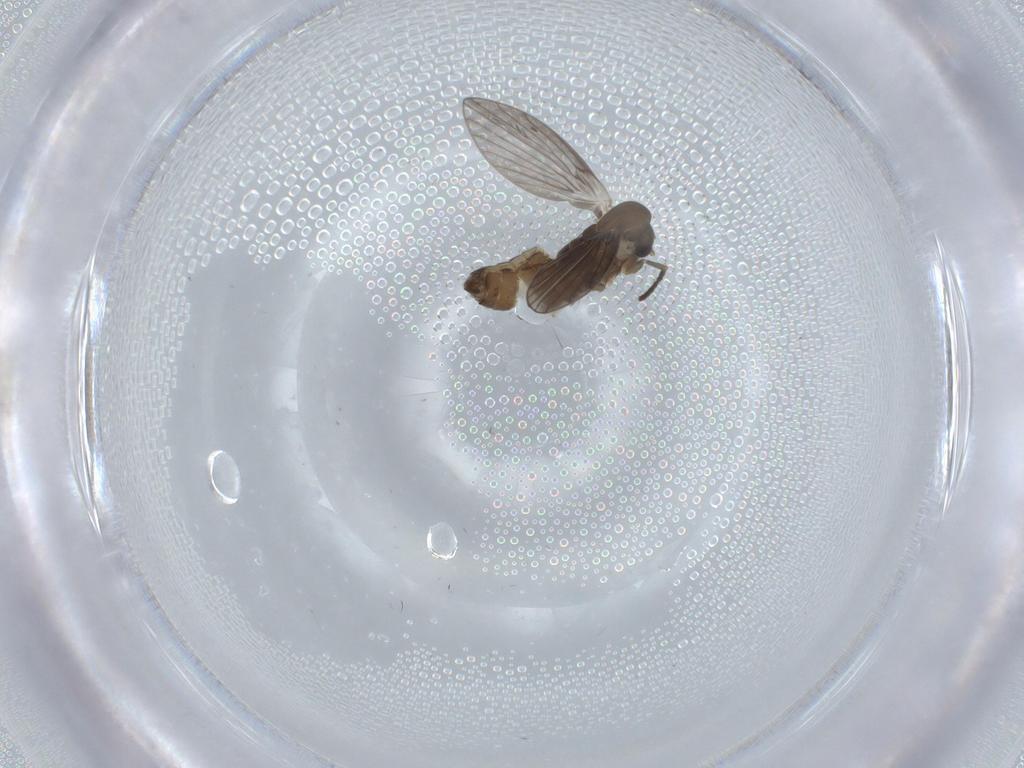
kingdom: Animalia
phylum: Arthropoda
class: Insecta
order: Diptera
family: Psychodidae
